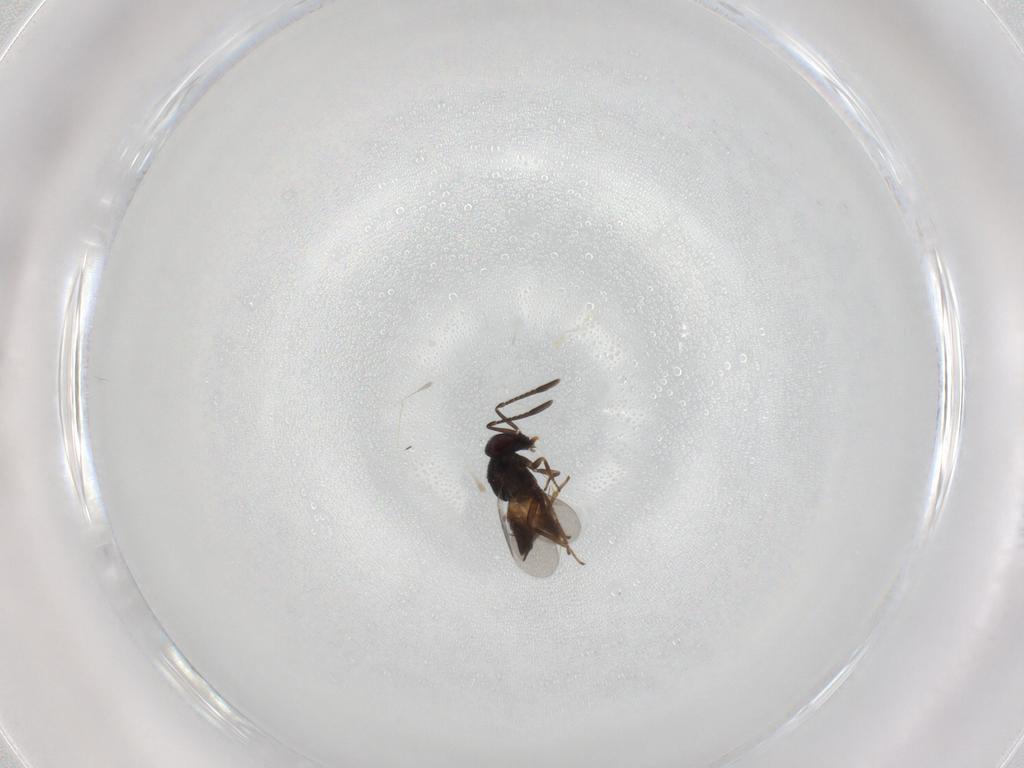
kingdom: Animalia
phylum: Arthropoda
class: Insecta
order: Hymenoptera
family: Encyrtidae
